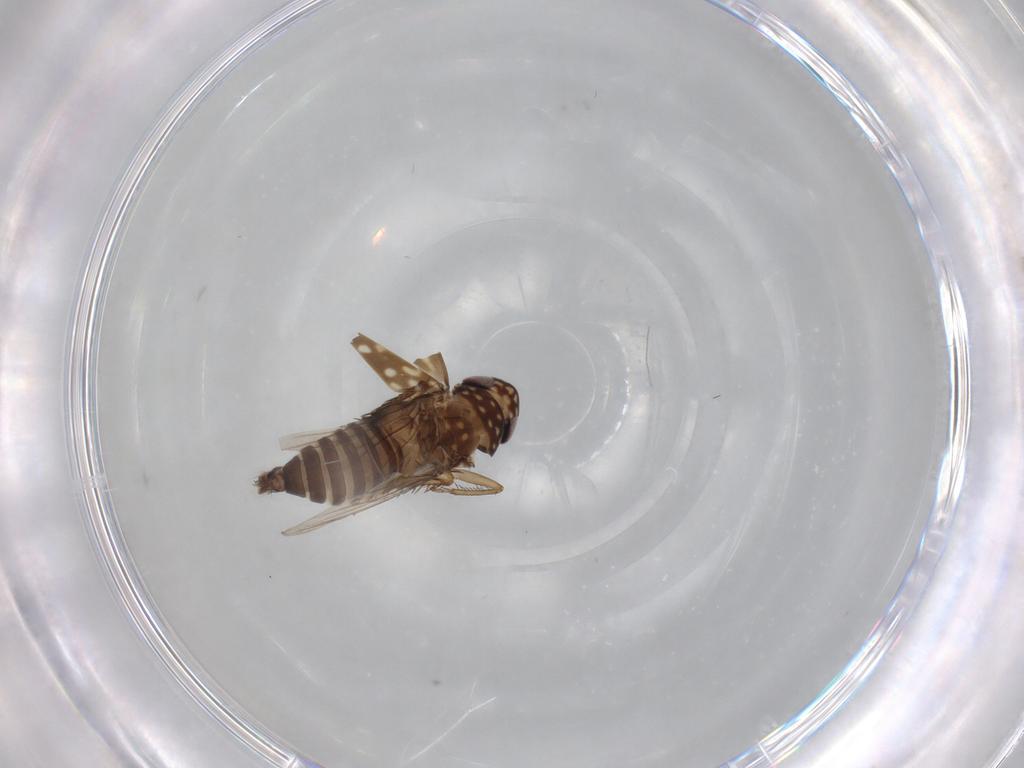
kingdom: Animalia
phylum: Arthropoda
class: Insecta
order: Hemiptera
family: Cicadellidae
